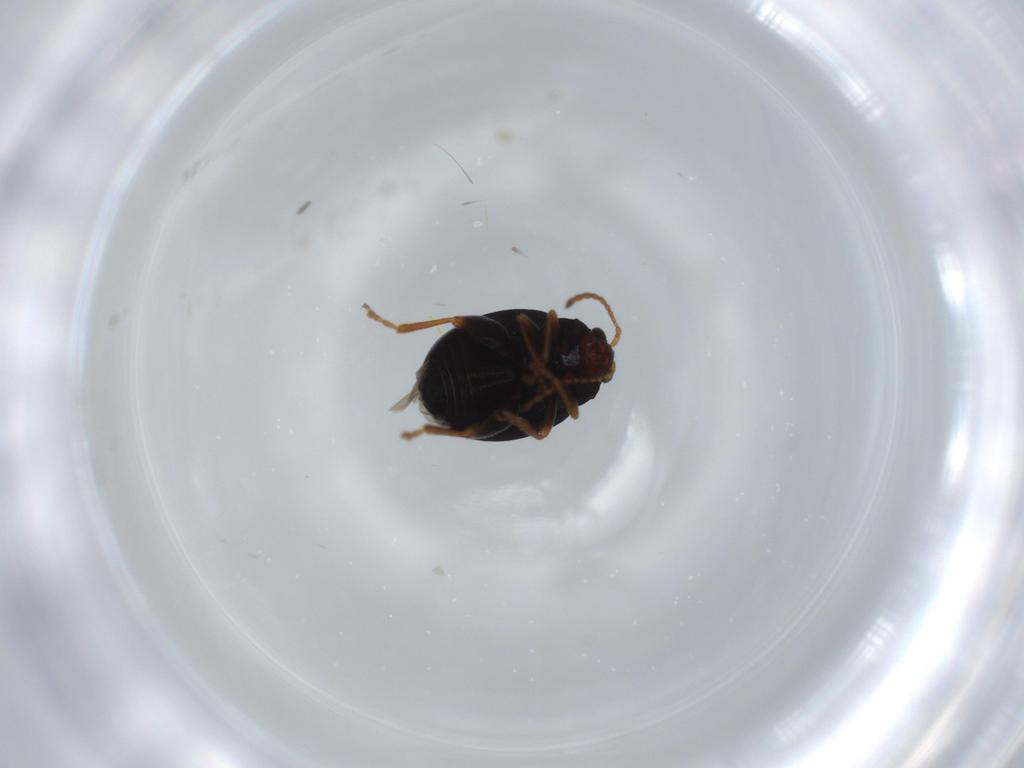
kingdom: Animalia
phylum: Arthropoda
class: Insecta
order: Coleoptera
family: Chrysomelidae
